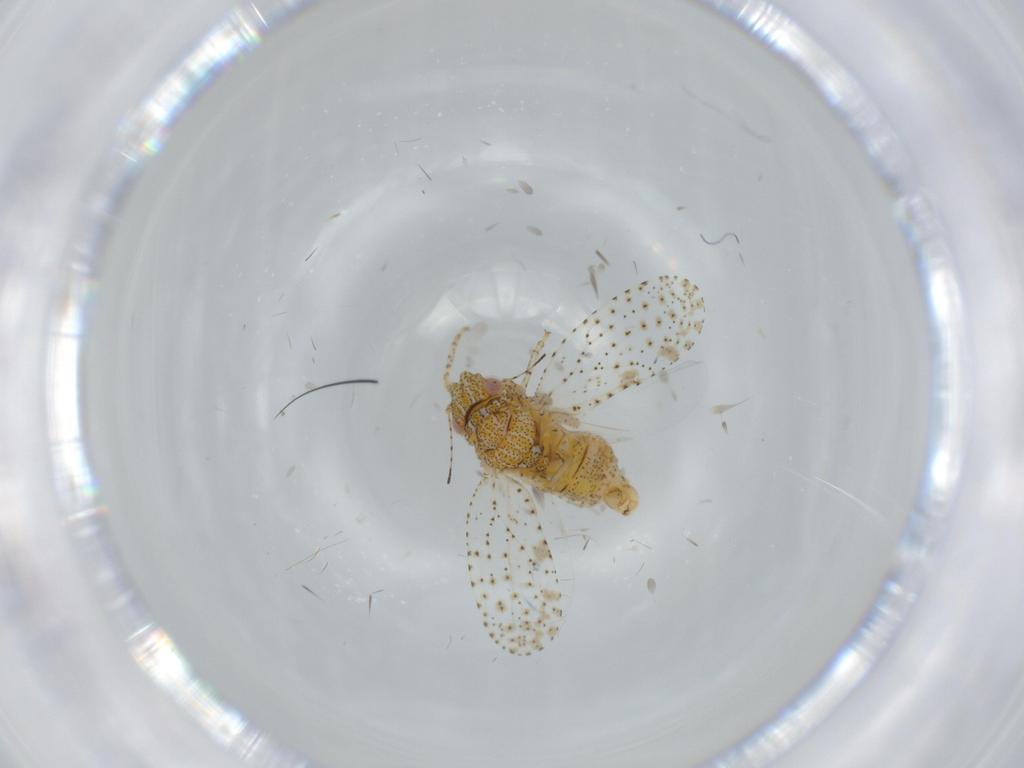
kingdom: Animalia
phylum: Arthropoda
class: Insecta
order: Hemiptera
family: Psyllidae
